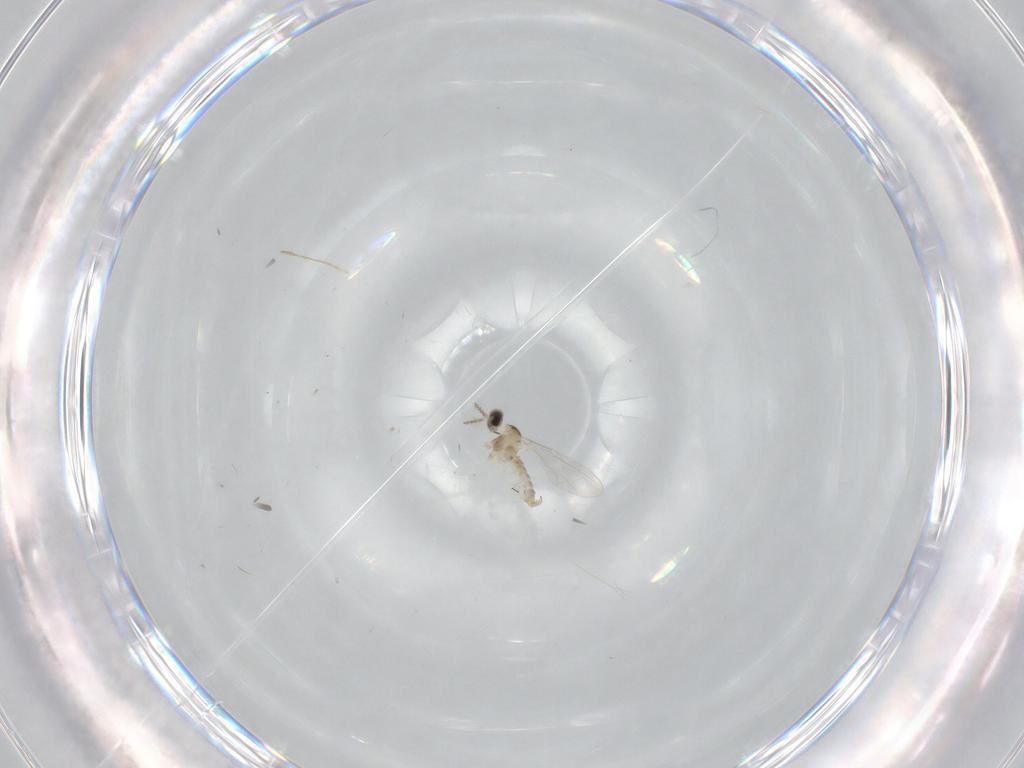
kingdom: Animalia
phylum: Arthropoda
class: Insecta
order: Diptera
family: Cecidomyiidae
